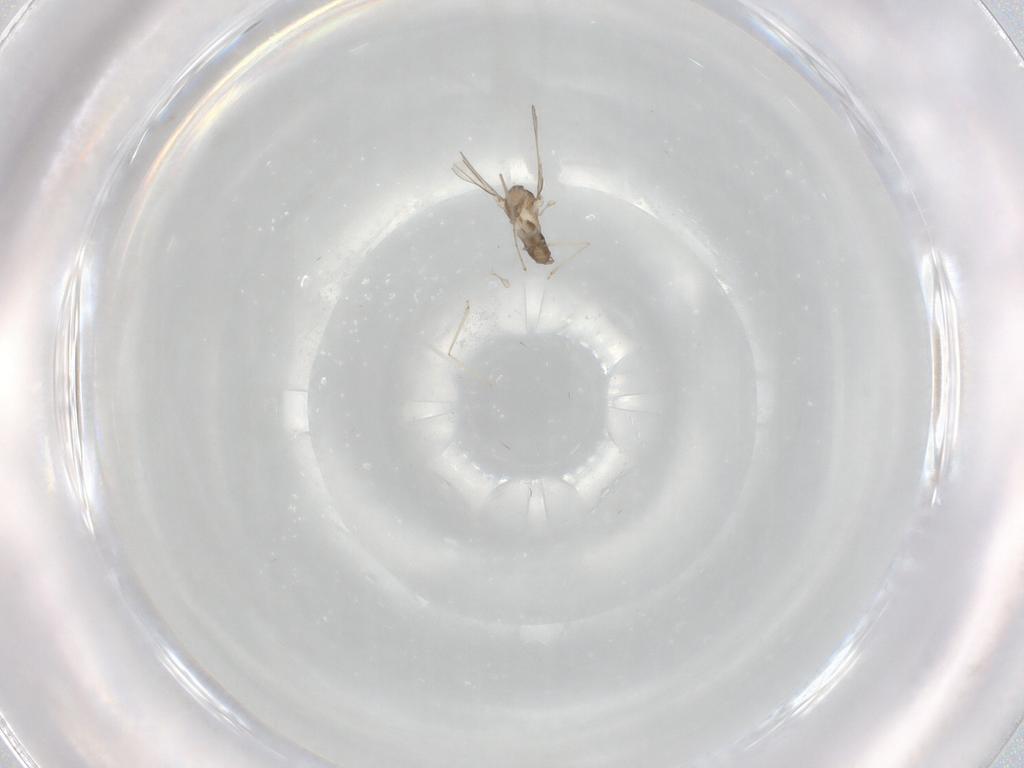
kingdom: Animalia
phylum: Arthropoda
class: Insecta
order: Diptera
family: Cecidomyiidae
